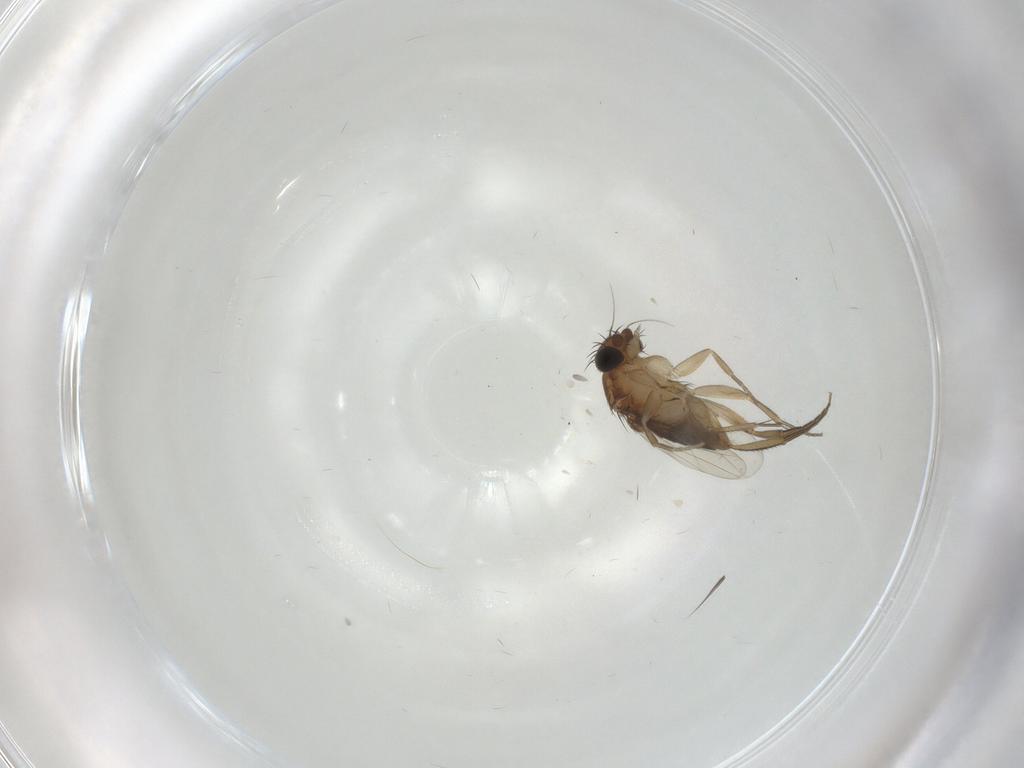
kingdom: Animalia
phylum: Arthropoda
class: Insecta
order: Diptera
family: Phoridae
